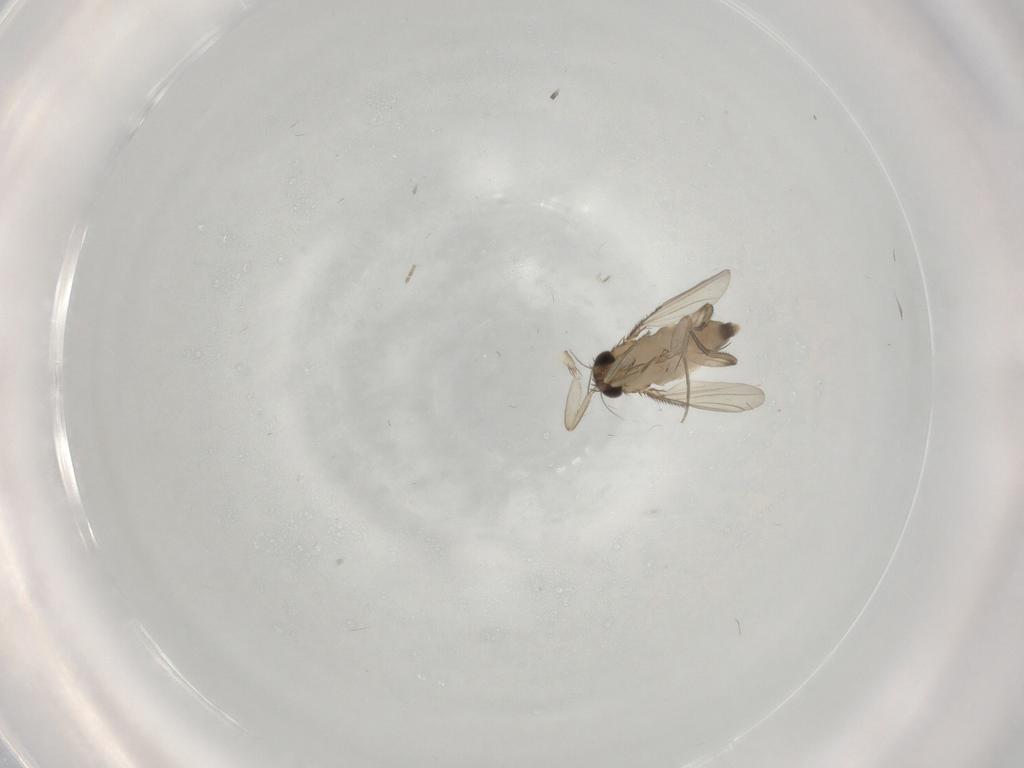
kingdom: Animalia
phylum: Arthropoda
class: Insecta
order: Diptera
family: Phoridae
